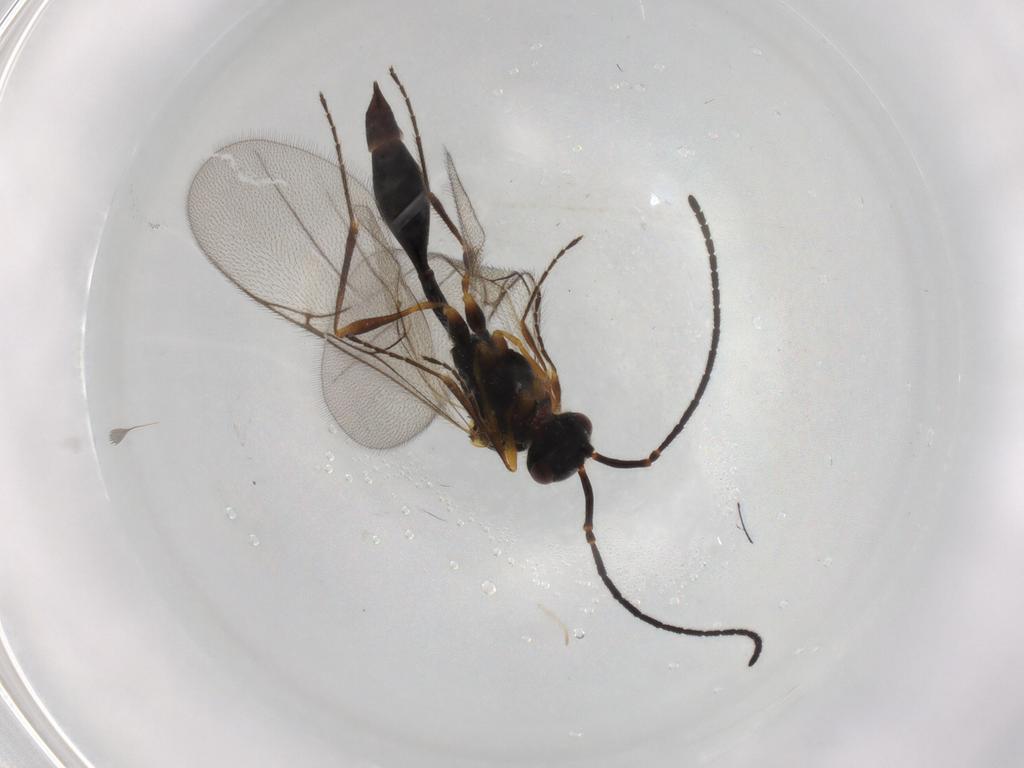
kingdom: Animalia
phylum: Arthropoda
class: Insecta
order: Hymenoptera
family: Diapriidae
